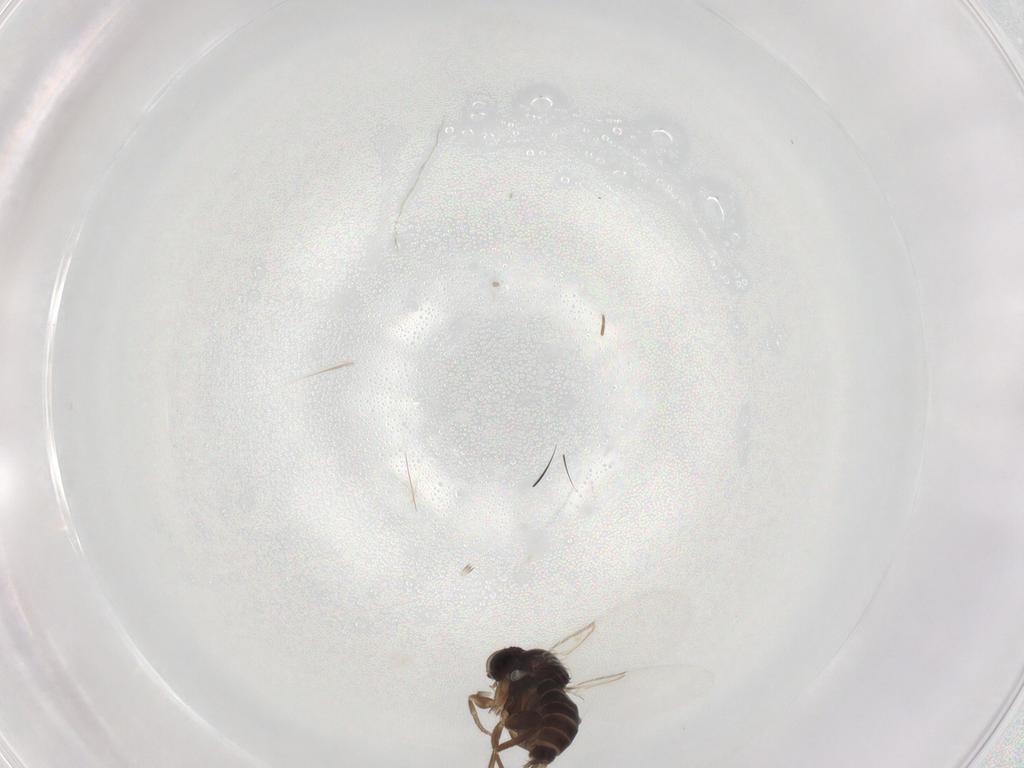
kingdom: Animalia
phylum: Arthropoda
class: Insecta
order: Diptera
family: Phoridae
